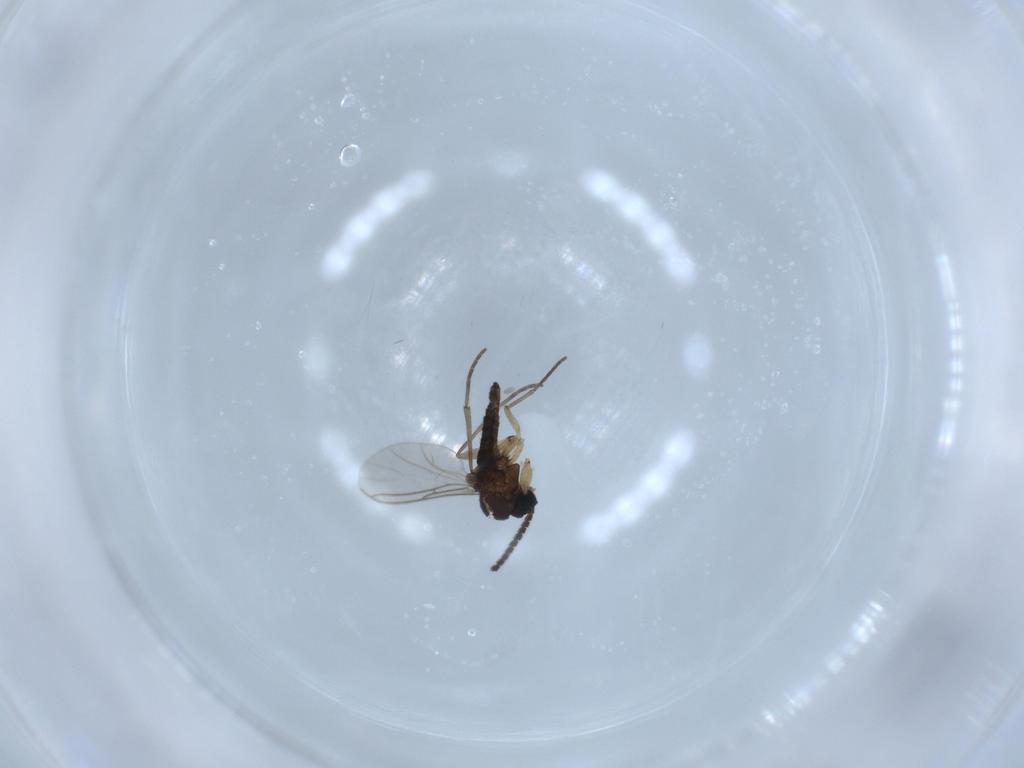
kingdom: Animalia
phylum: Arthropoda
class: Insecta
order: Diptera
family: Sciaridae
